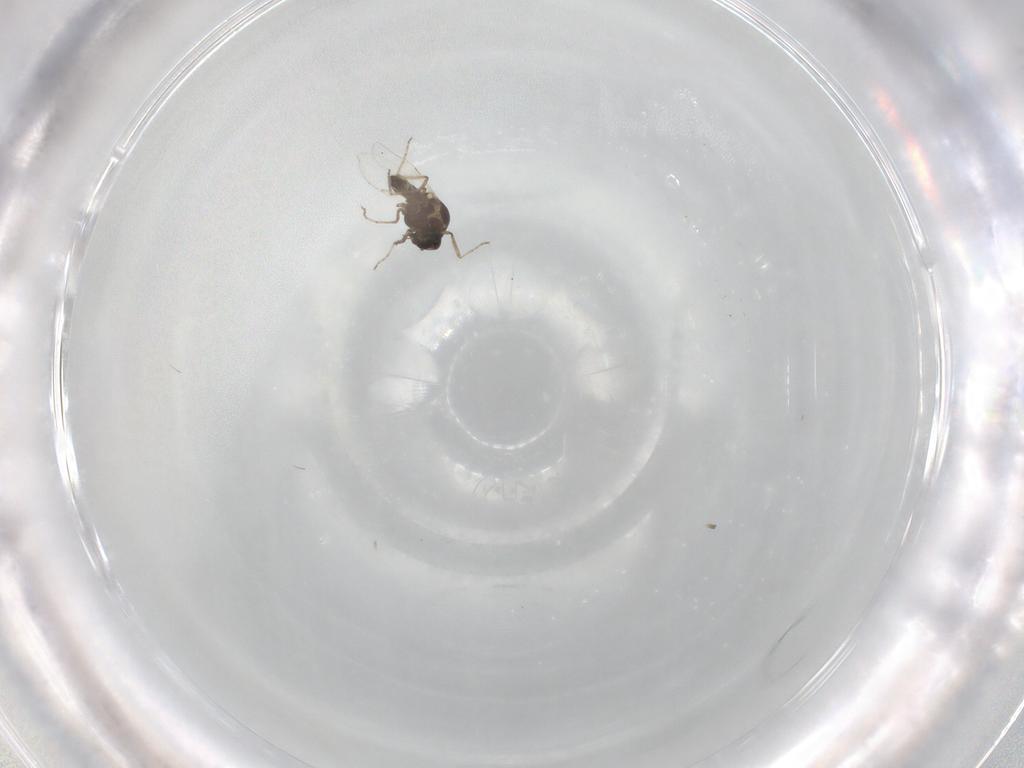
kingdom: Animalia
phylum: Arthropoda
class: Insecta
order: Diptera
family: Ceratopogonidae
